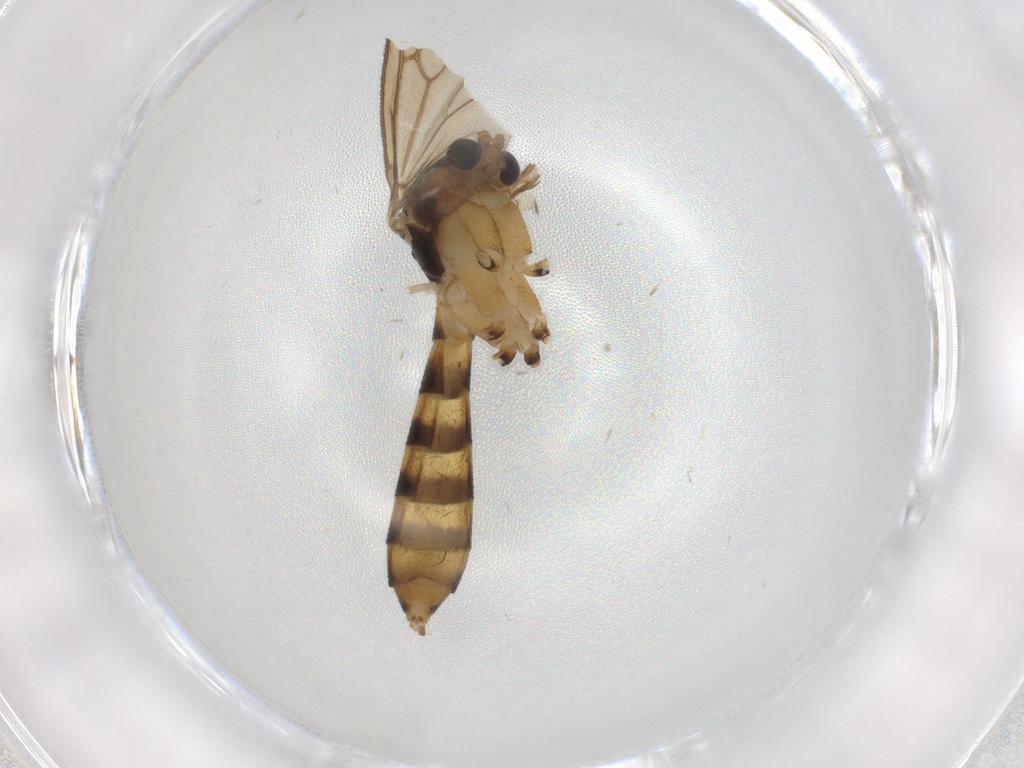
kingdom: Animalia
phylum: Arthropoda
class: Insecta
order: Diptera
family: Mycetophilidae
